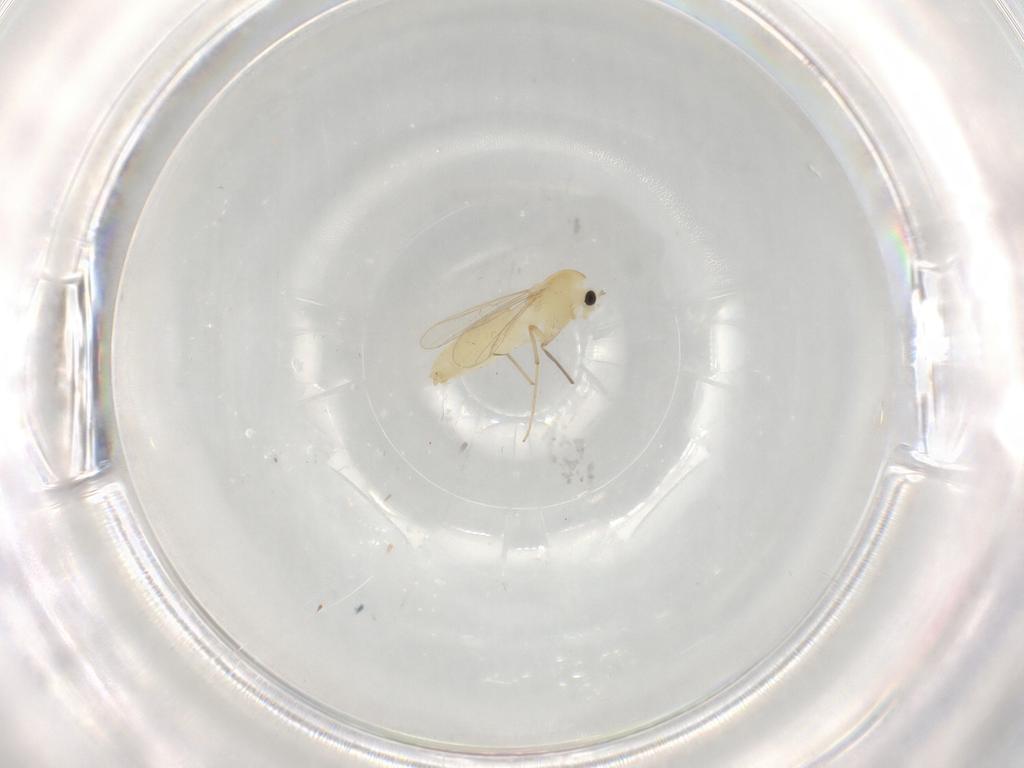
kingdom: Animalia
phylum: Arthropoda
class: Insecta
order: Diptera
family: Chironomidae
